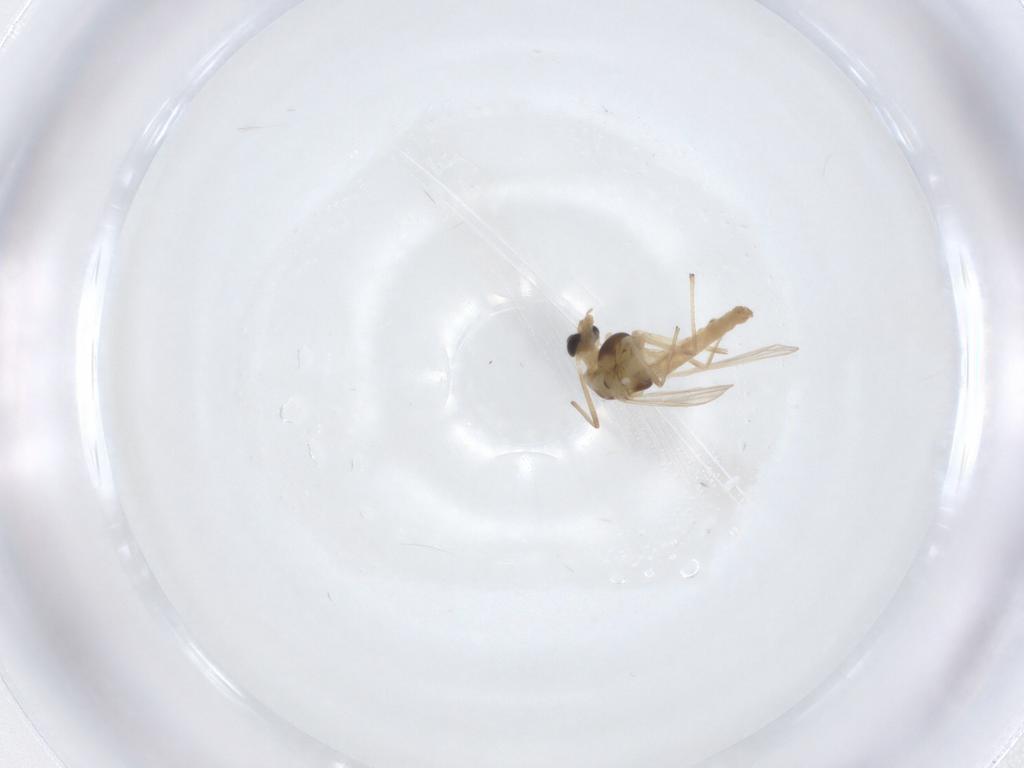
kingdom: Animalia
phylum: Arthropoda
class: Insecta
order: Diptera
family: Chironomidae
